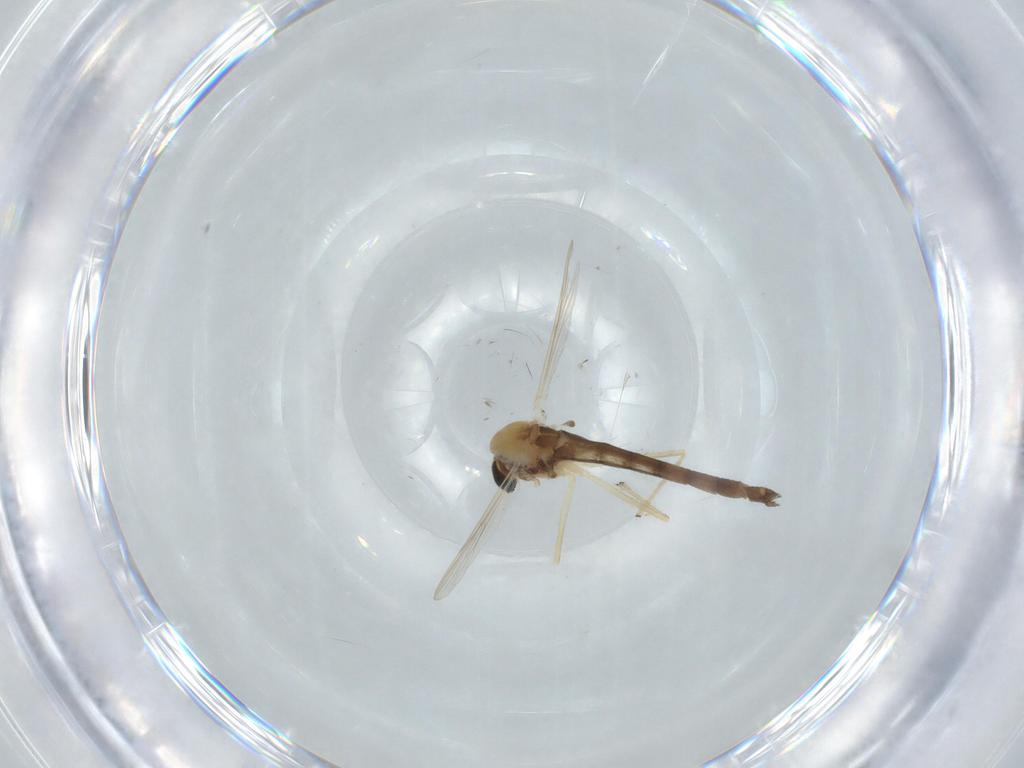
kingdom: Animalia
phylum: Arthropoda
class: Insecta
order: Diptera
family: Chironomidae
